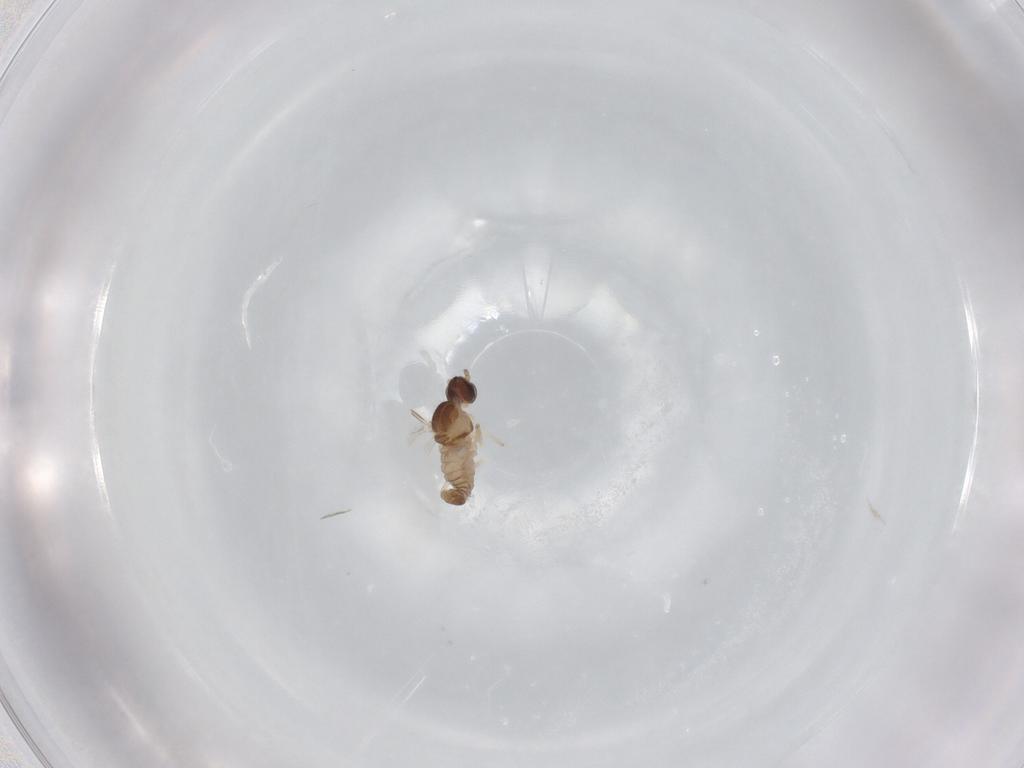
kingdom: Animalia
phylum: Arthropoda
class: Insecta
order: Diptera
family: Cecidomyiidae
